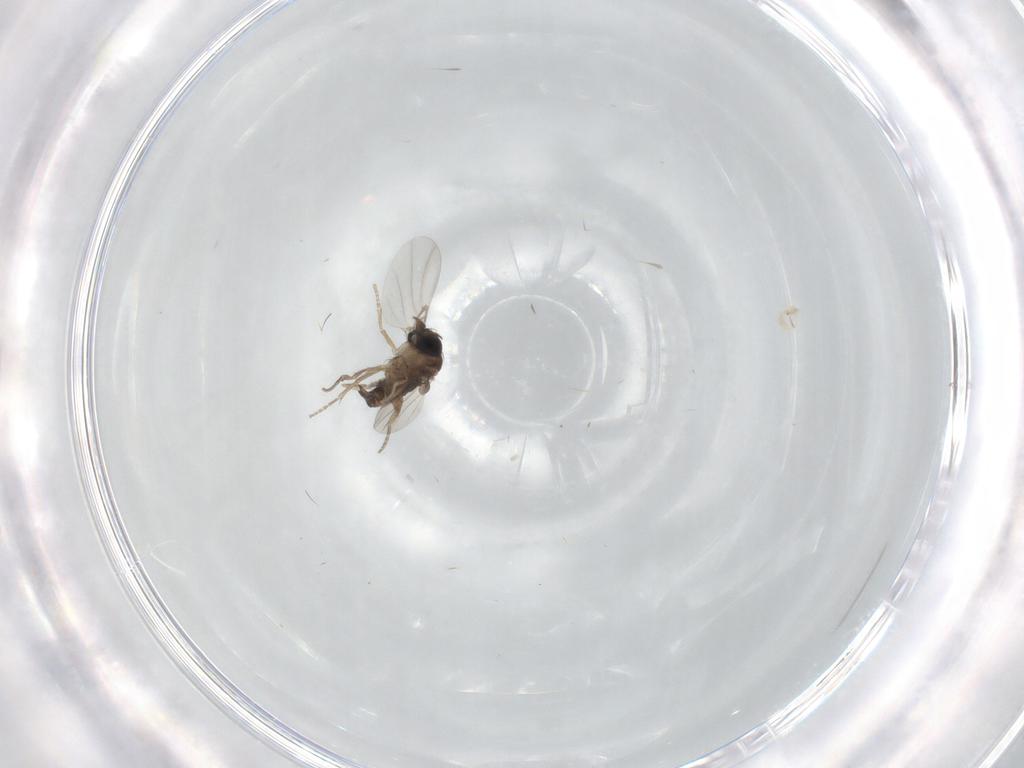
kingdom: Animalia
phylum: Arthropoda
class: Insecta
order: Diptera
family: Phoridae
